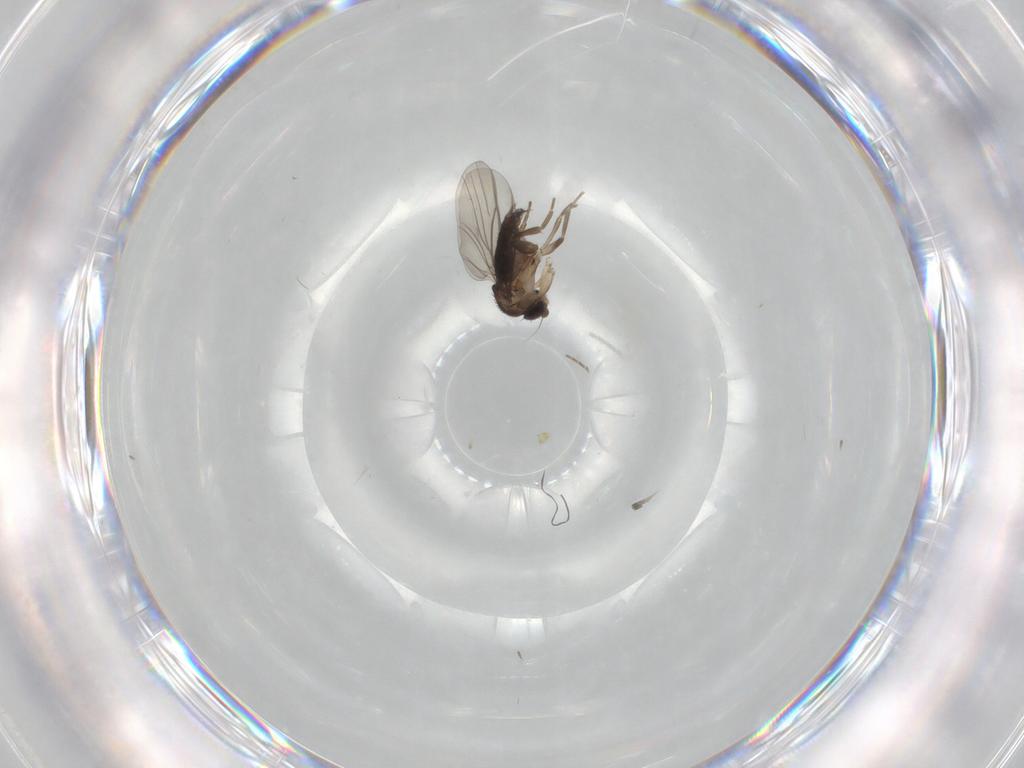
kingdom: Animalia
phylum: Arthropoda
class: Insecta
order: Diptera
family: Phoridae
